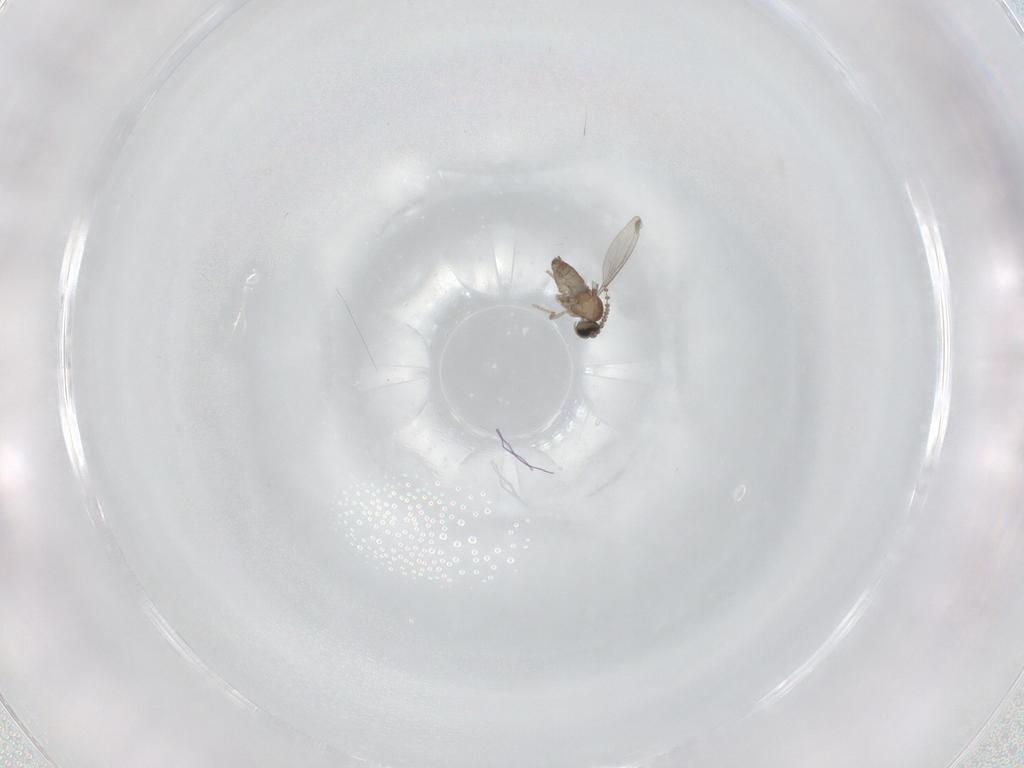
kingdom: Animalia
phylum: Arthropoda
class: Insecta
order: Diptera
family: Cecidomyiidae
